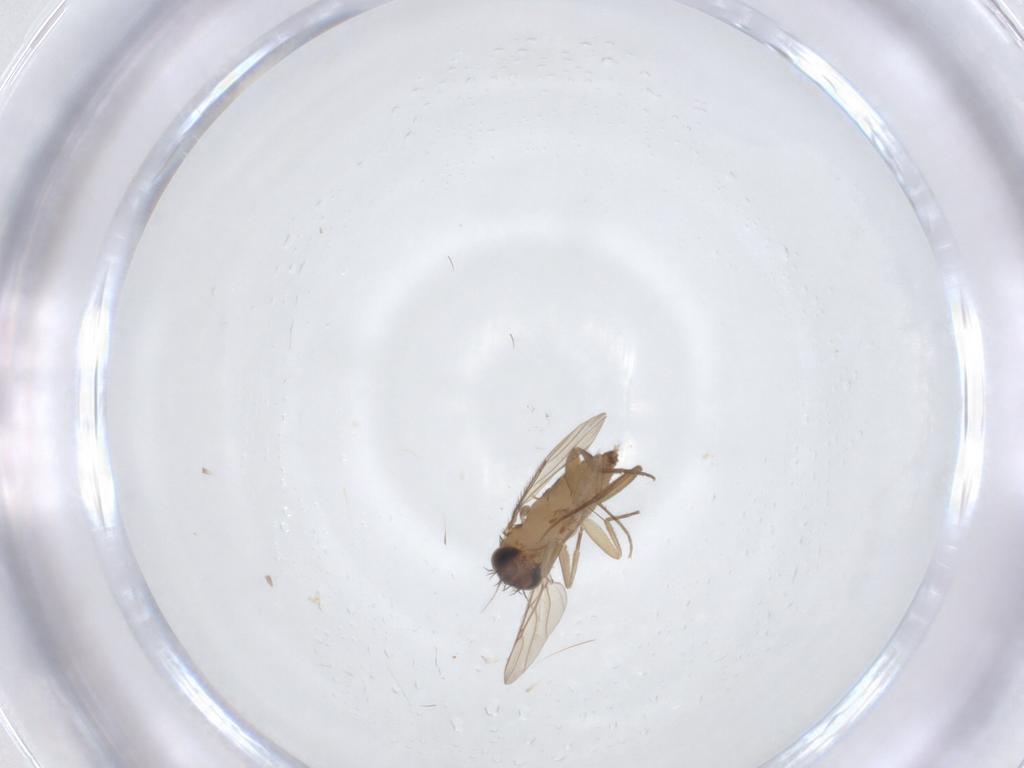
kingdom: Animalia
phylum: Arthropoda
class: Insecta
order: Diptera
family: Phoridae
